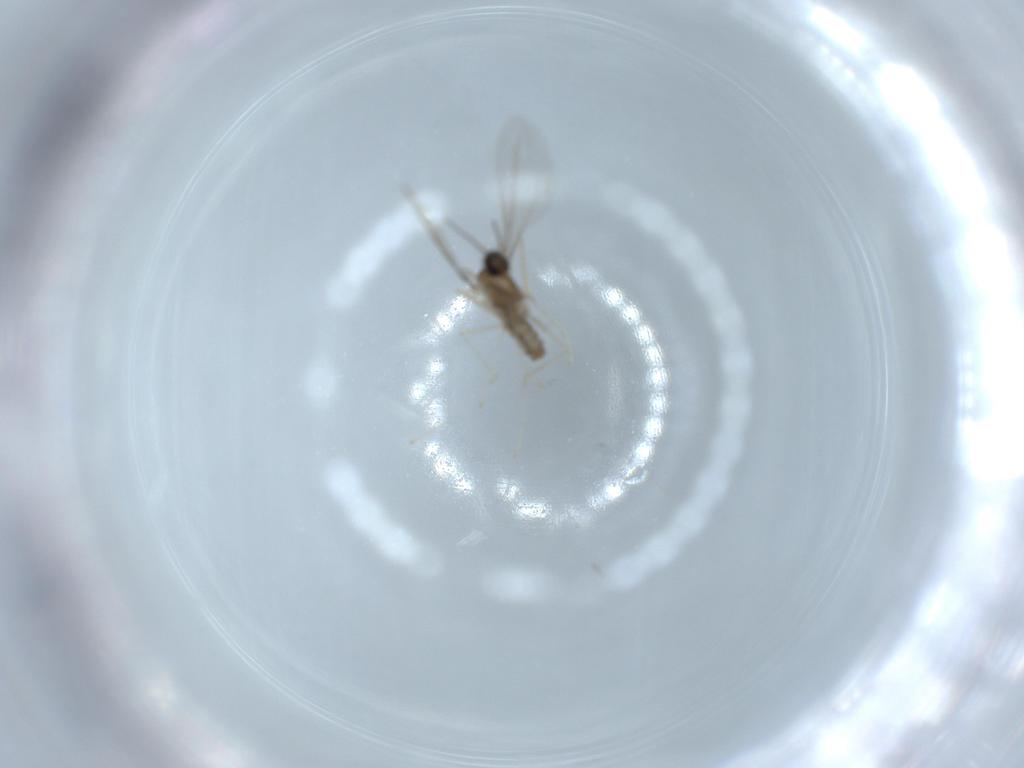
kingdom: Animalia
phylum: Arthropoda
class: Insecta
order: Diptera
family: Cecidomyiidae
